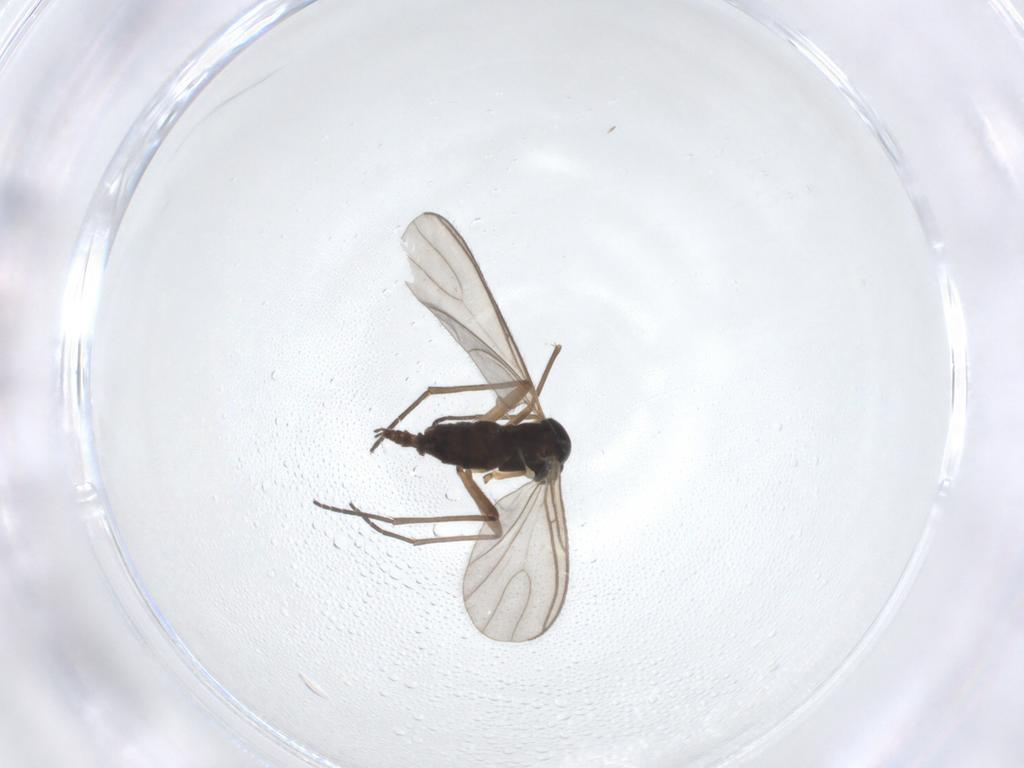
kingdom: Animalia
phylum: Arthropoda
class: Insecta
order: Diptera
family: Sciaridae
